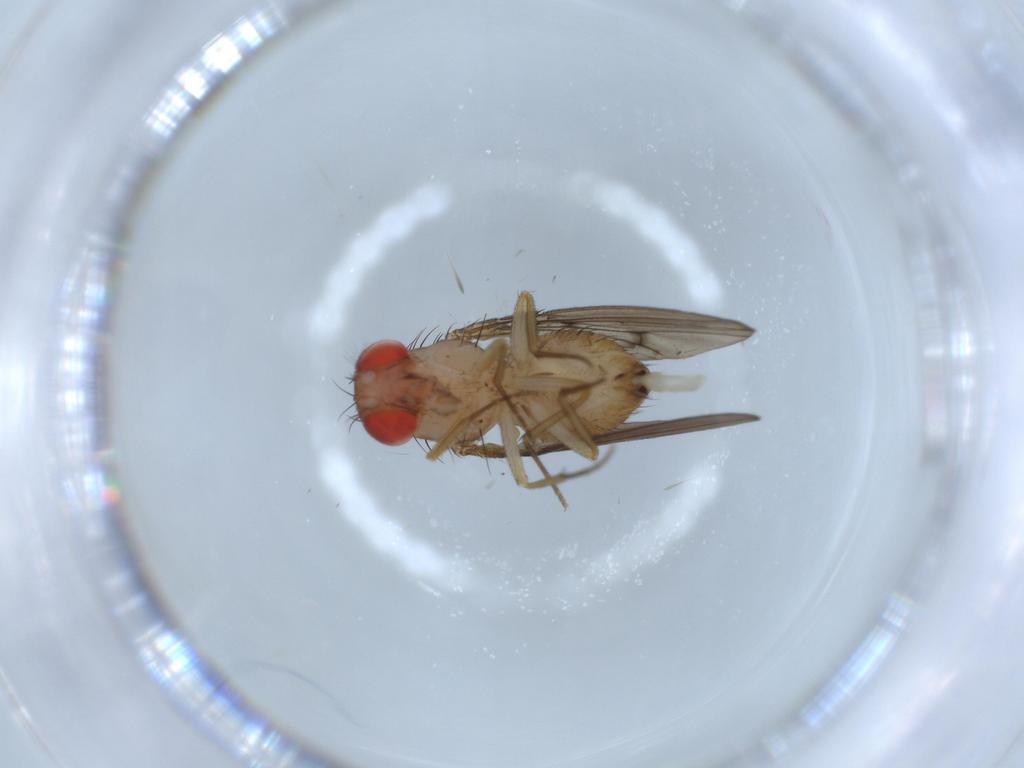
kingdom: Animalia
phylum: Arthropoda
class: Insecta
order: Diptera
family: Drosophilidae
